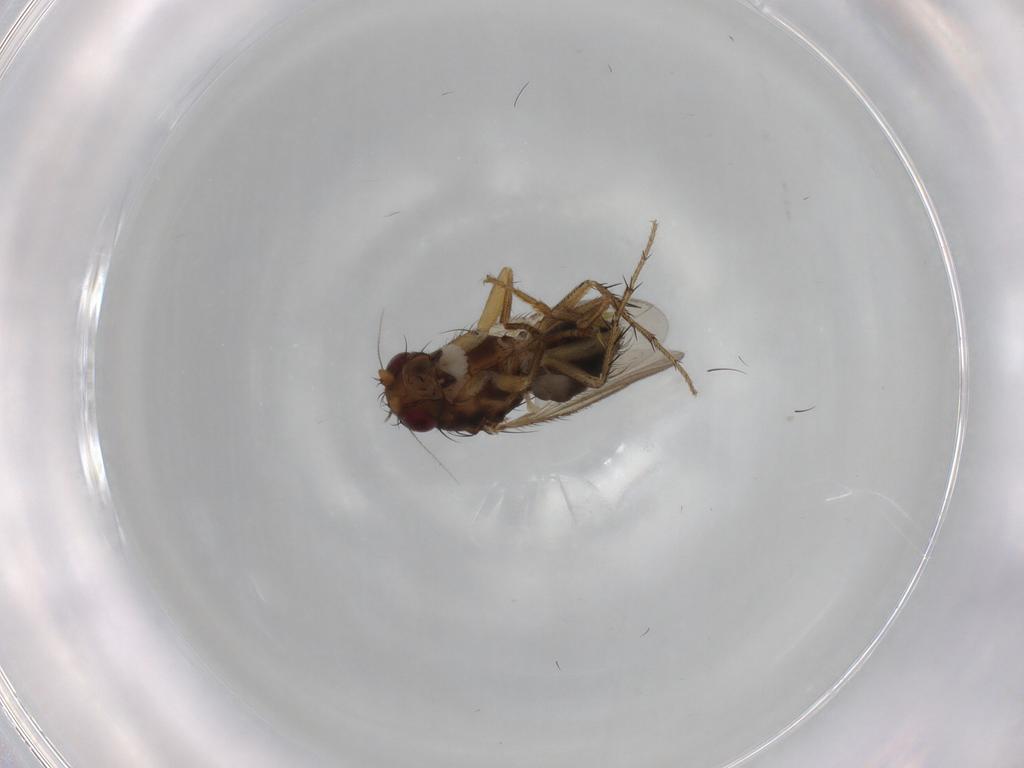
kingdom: Animalia
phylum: Arthropoda
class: Insecta
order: Diptera
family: Sphaeroceridae
